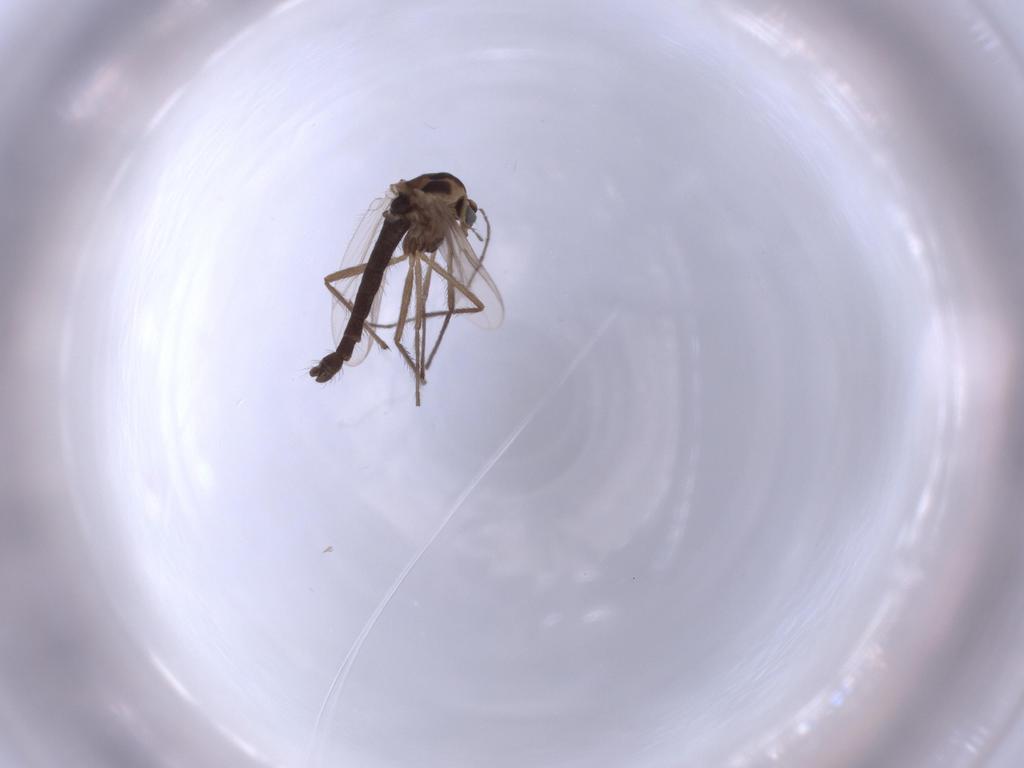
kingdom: Animalia
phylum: Arthropoda
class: Insecta
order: Diptera
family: Chironomidae
